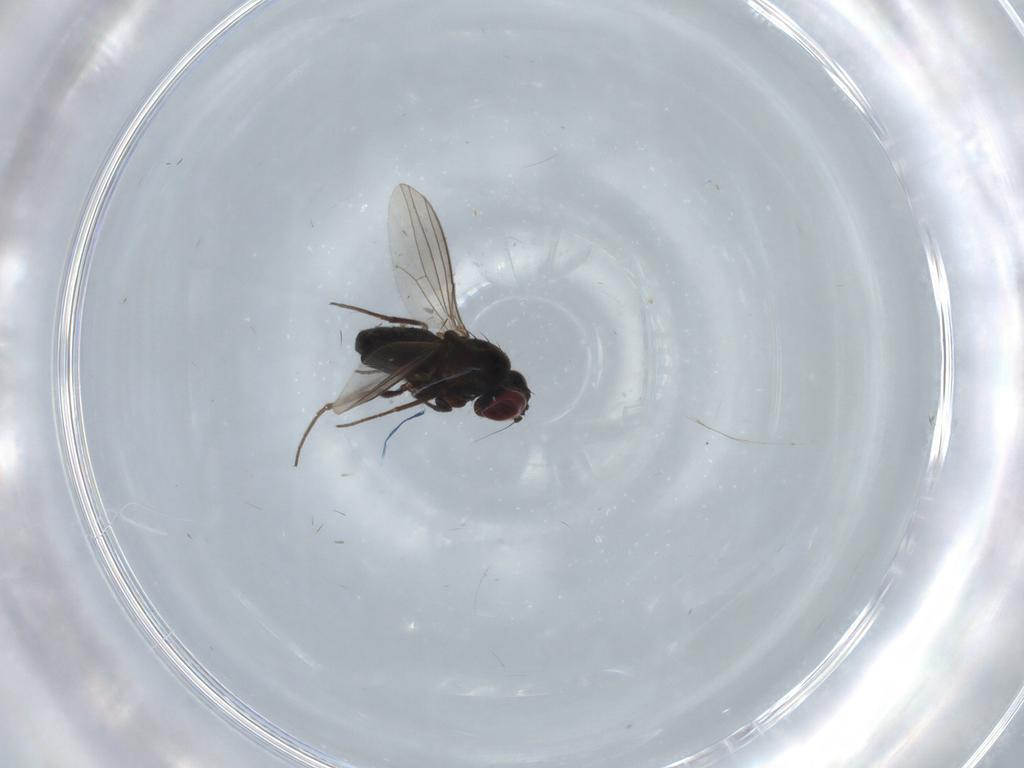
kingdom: Animalia
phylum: Arthropoda
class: Insecta
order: Diptera
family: Dolichopodidae
